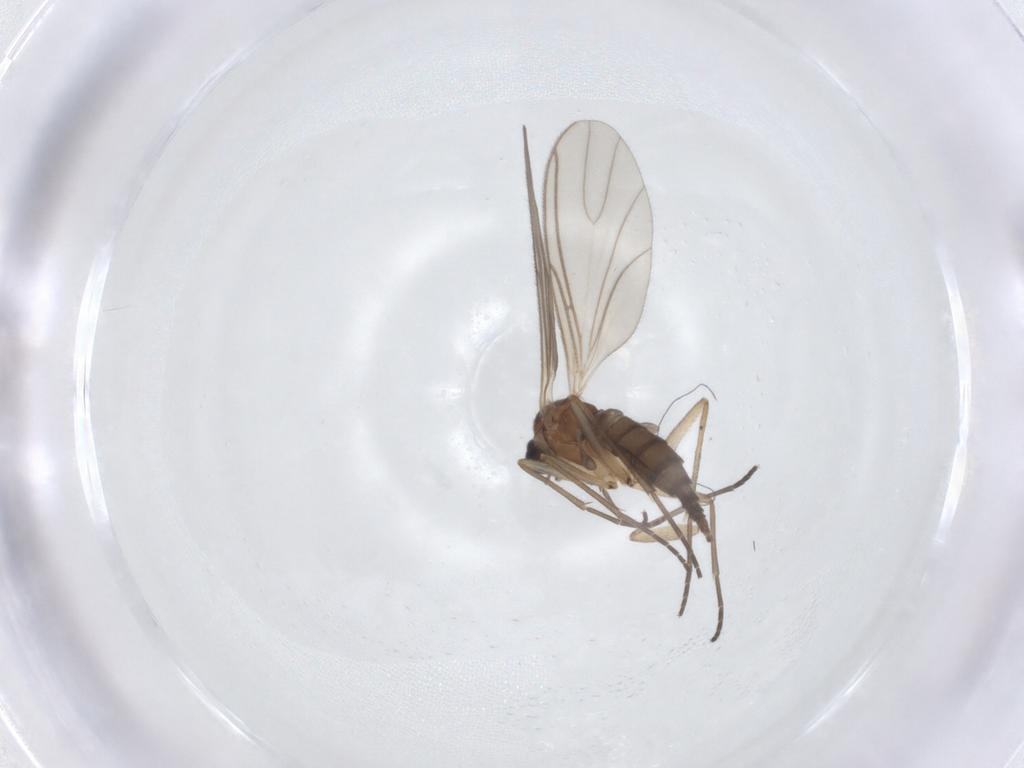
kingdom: Animalia
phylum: Arthropoda
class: Insecta
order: Diptera
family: Sciaridae
